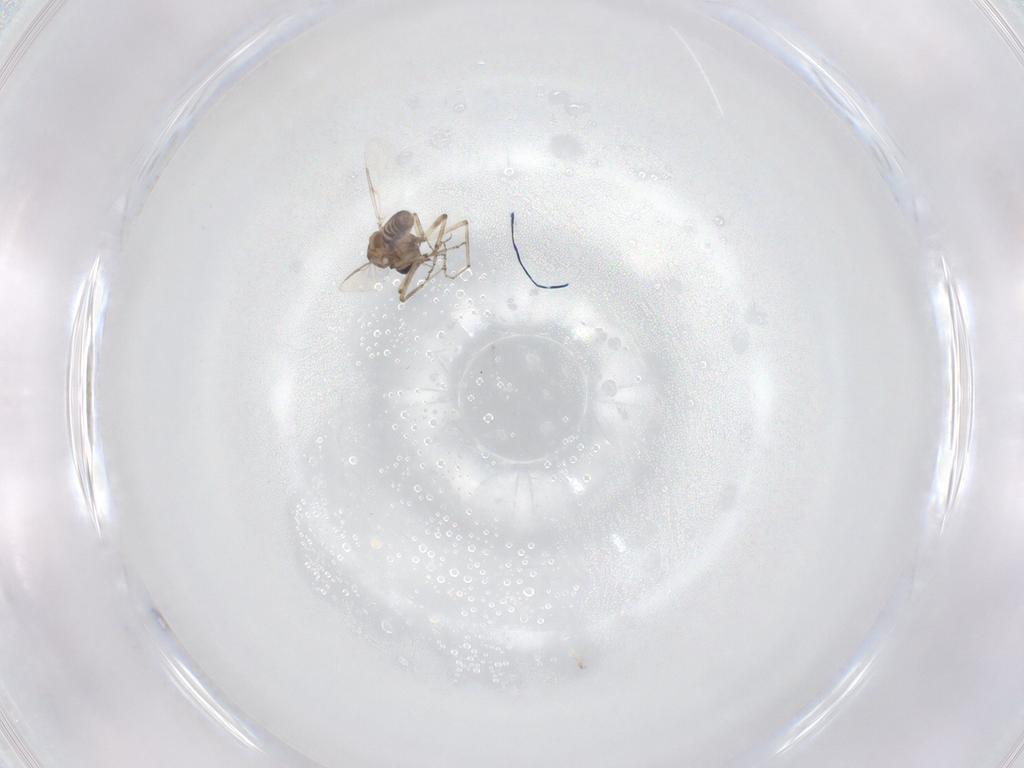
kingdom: Animalia
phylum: Arthropoda
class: Insecta
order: Diptera
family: Ceratopogonidae
